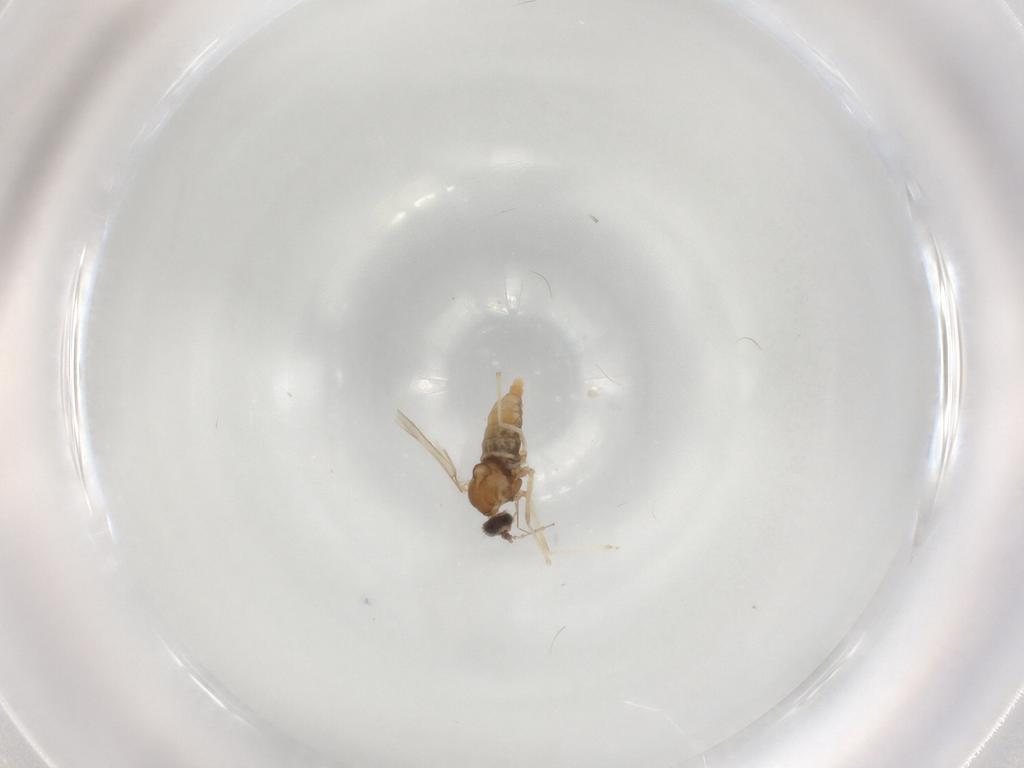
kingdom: Animalia
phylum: Arthropoda
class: Insecta
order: Diptera
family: Cecidomyiidae
